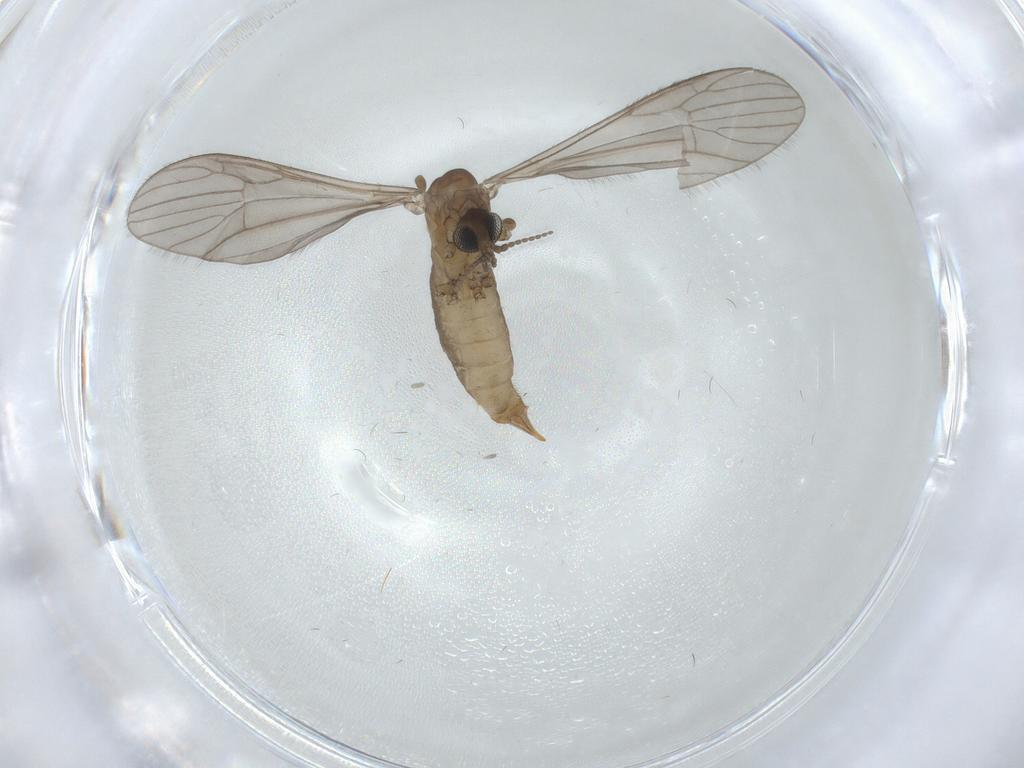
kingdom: Animalia
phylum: Arthropoda
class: Insecta
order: Diptera
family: Limoniidae
